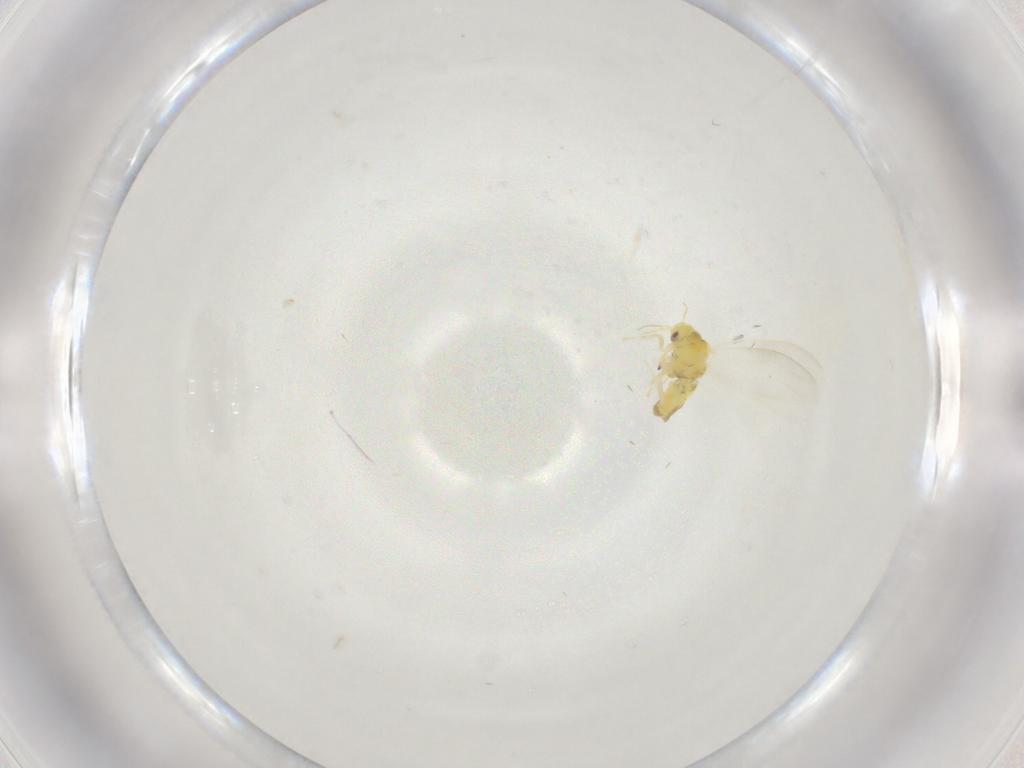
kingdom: Animalia
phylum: Arthropoda
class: Insecta
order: Hemiptera
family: Aleyrodidae
